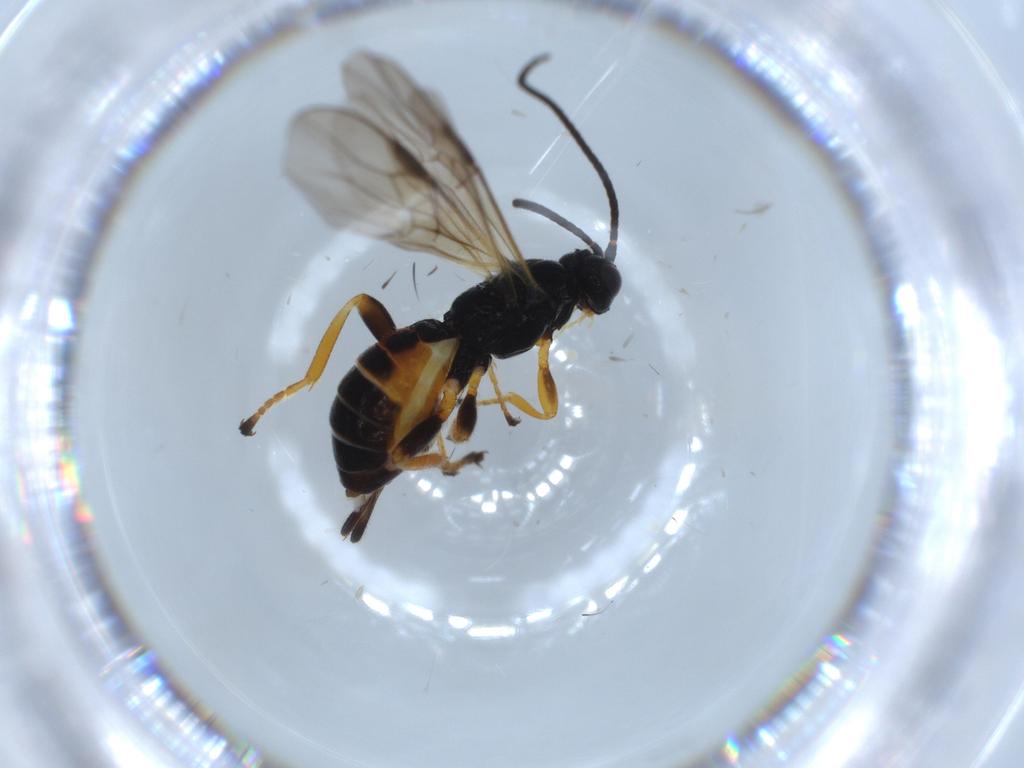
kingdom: Animalia
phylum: Arthropoda
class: Insecta
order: Hymenoptera
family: Braconidae
